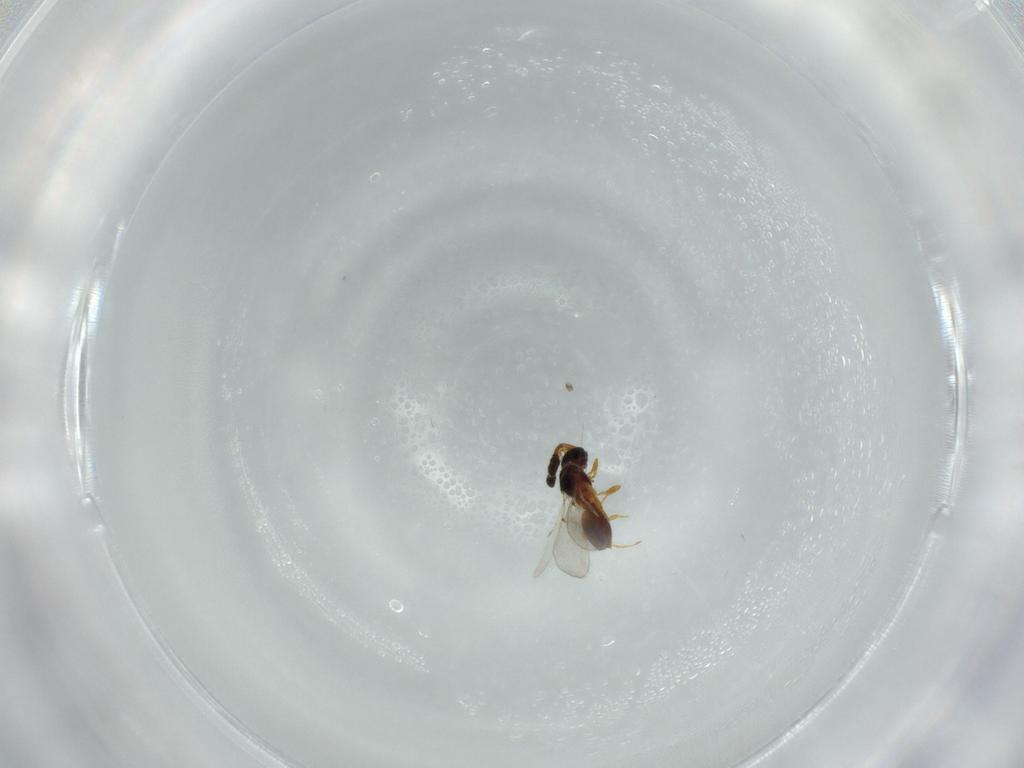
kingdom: Animalia
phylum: Arthropoda
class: Insecta
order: Hymenoptera
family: Diapriidae
